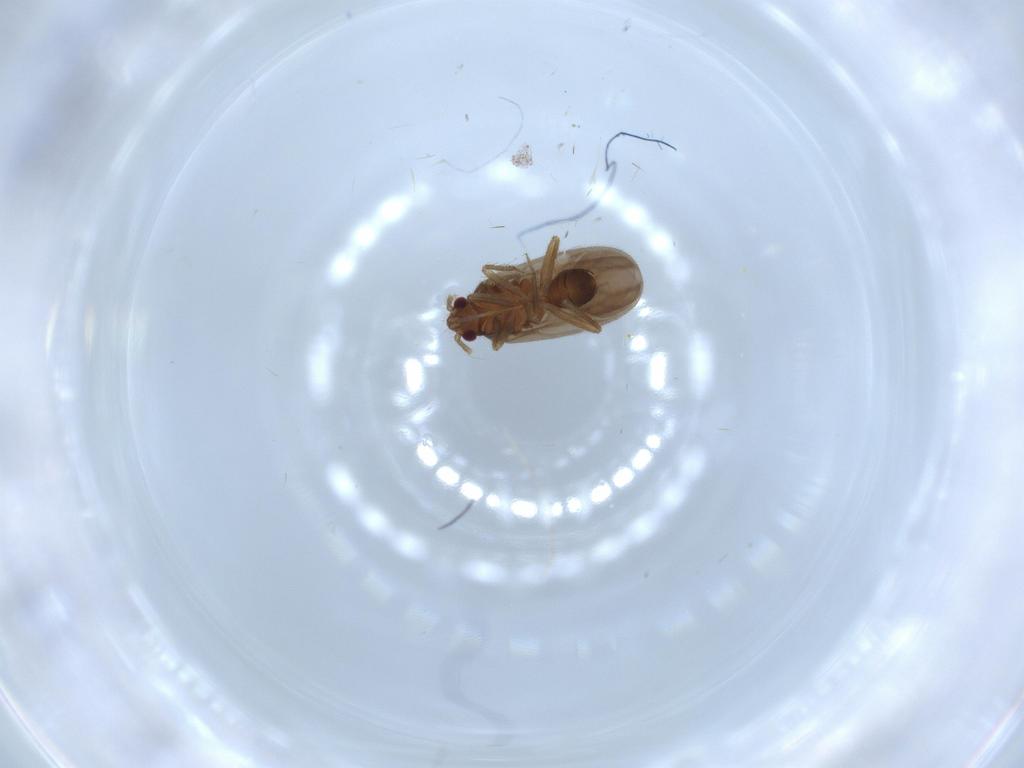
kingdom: Animalia
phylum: Arthropoda
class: Insecta
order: Hemiptera
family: Ceratocombidae
